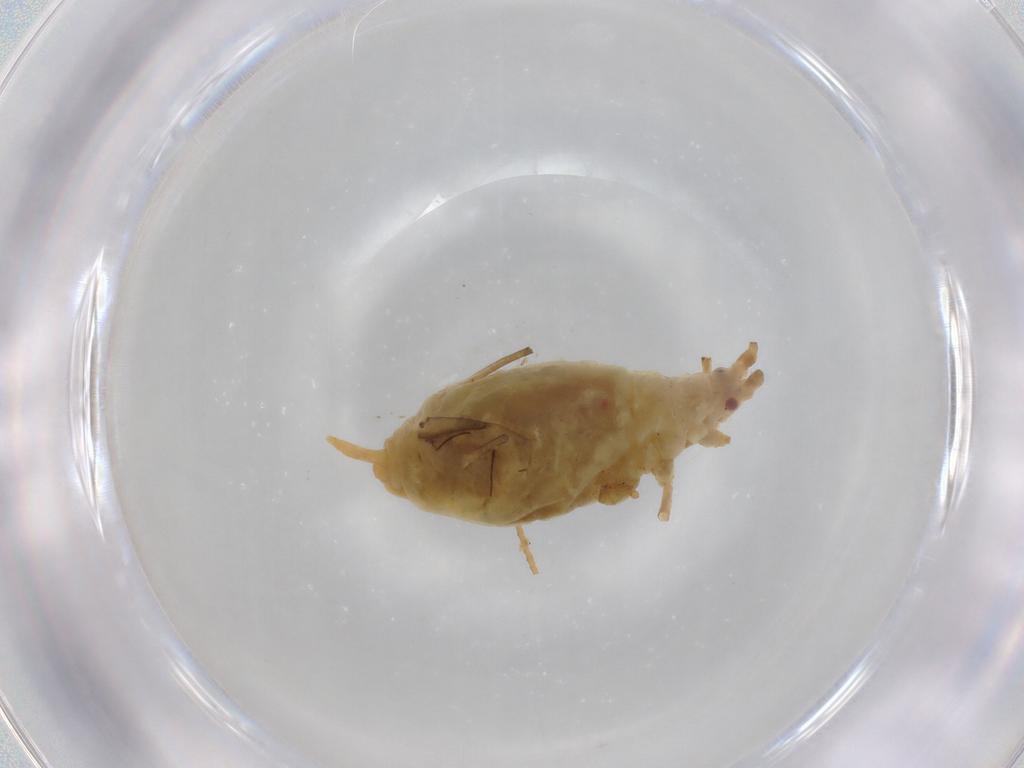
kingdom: Animalia
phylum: Arthropoda
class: Insecta
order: Hemiptera
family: Aphididae
